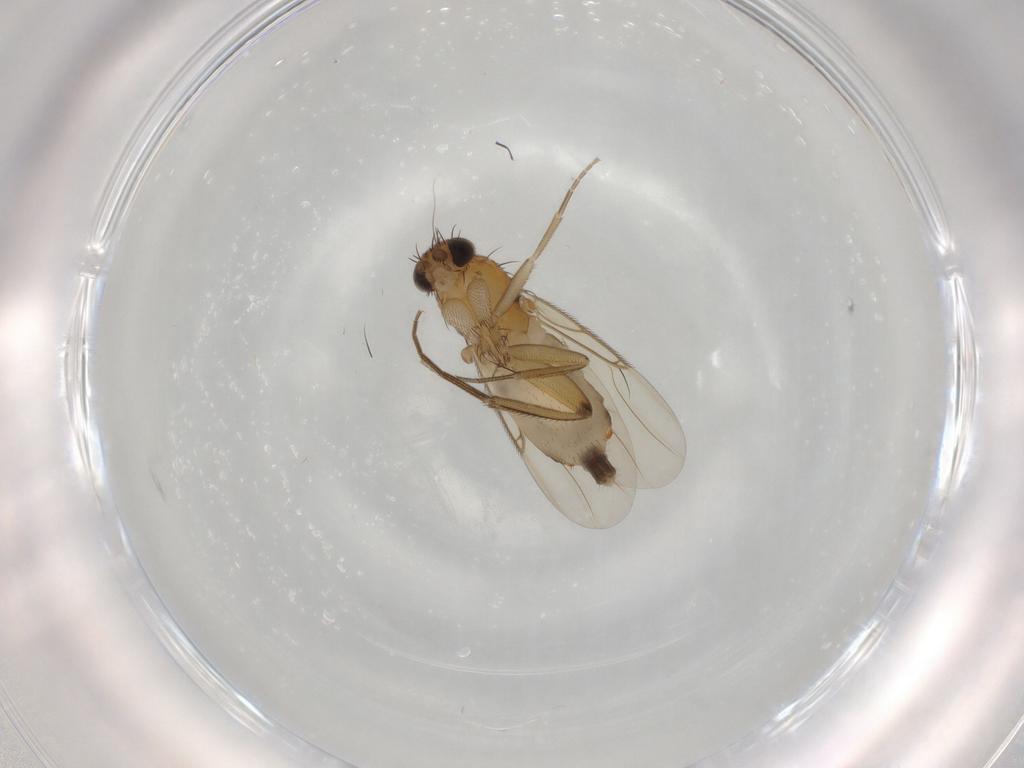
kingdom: Animalia
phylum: Arthropoda
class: Insecta
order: Diptera
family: Phoridae
